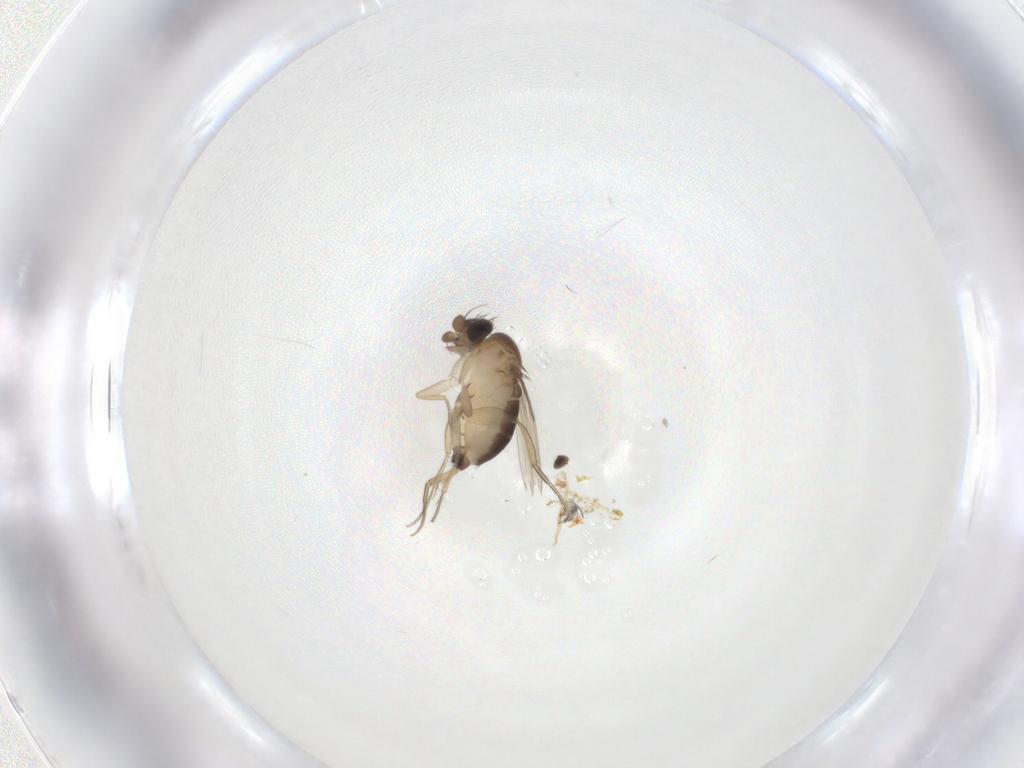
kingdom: Animalia
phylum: Arthropoda
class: Insecta
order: Diptera
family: Phoridae
